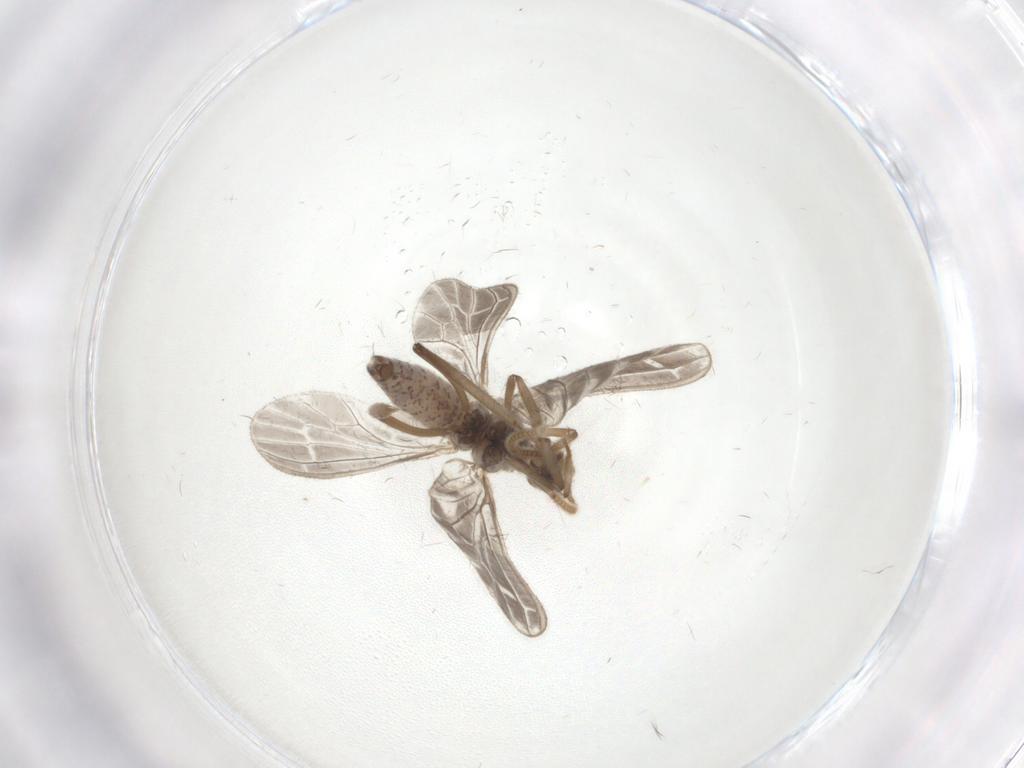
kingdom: Animalia
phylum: Arthropoda
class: Insecta
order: Neuroptera
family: Coniopterygidae
